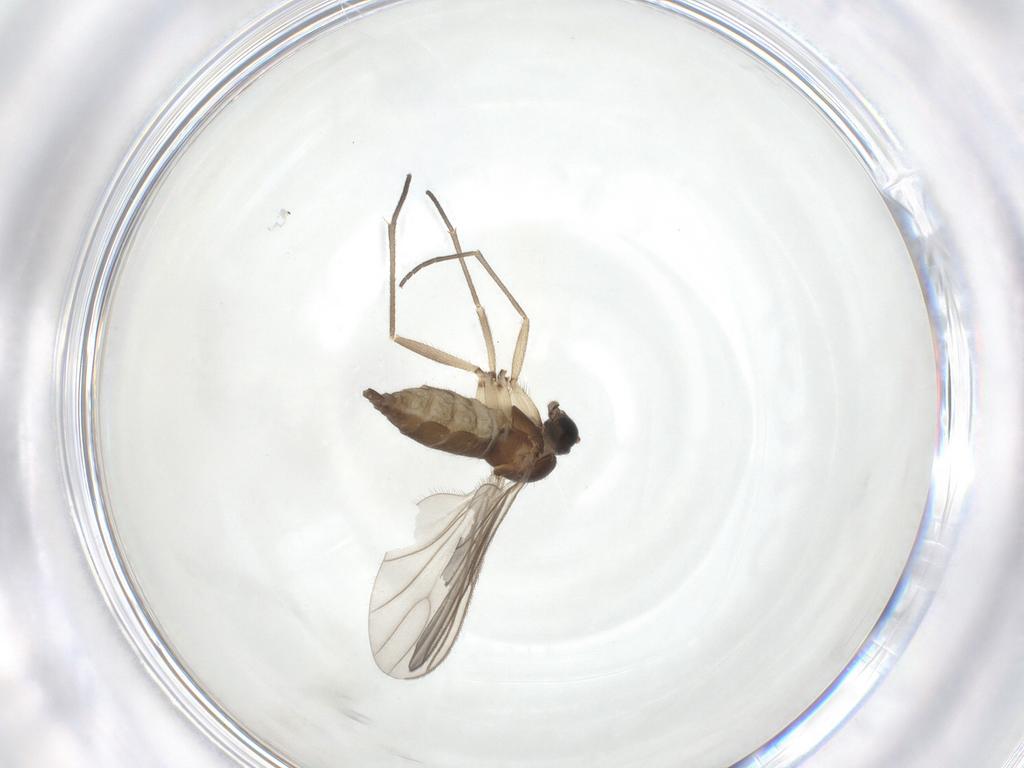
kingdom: Animalia
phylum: Arthropoda
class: Insecta
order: Diptera
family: Sciaridae
